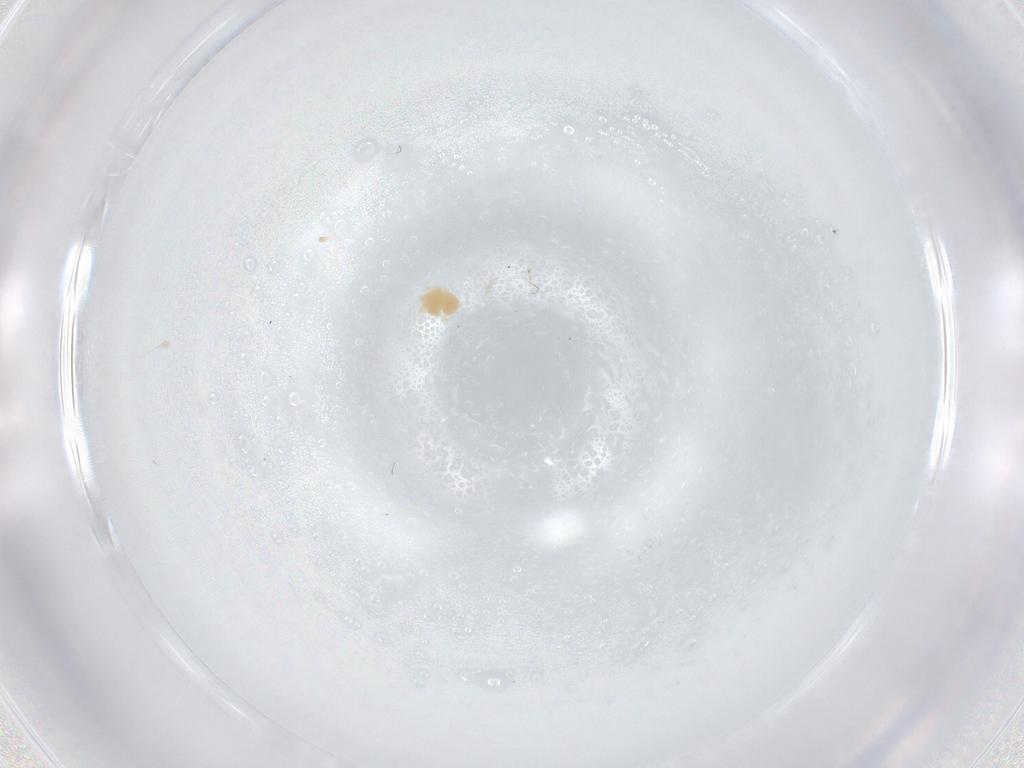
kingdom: Animalia
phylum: Arthropoda
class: Arachnida
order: Trombidiformes
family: Microtrombidiidae
